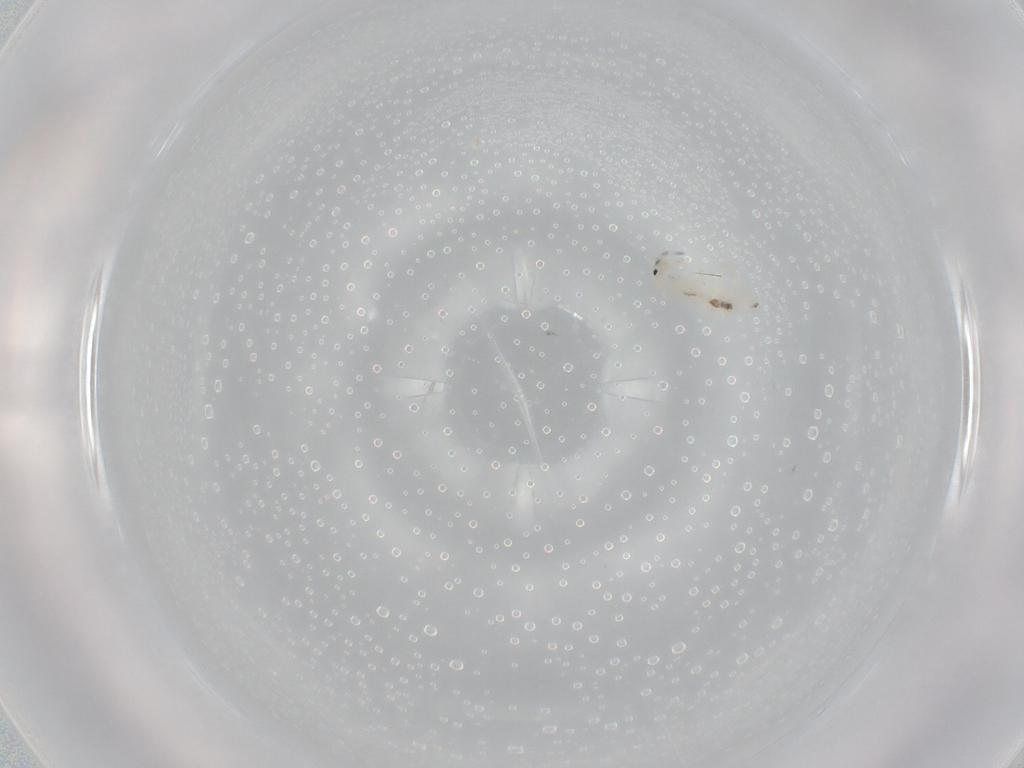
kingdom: Animalia
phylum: Arthropoda
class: Collembola
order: Entomobryomorpha
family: Entomobryidae
